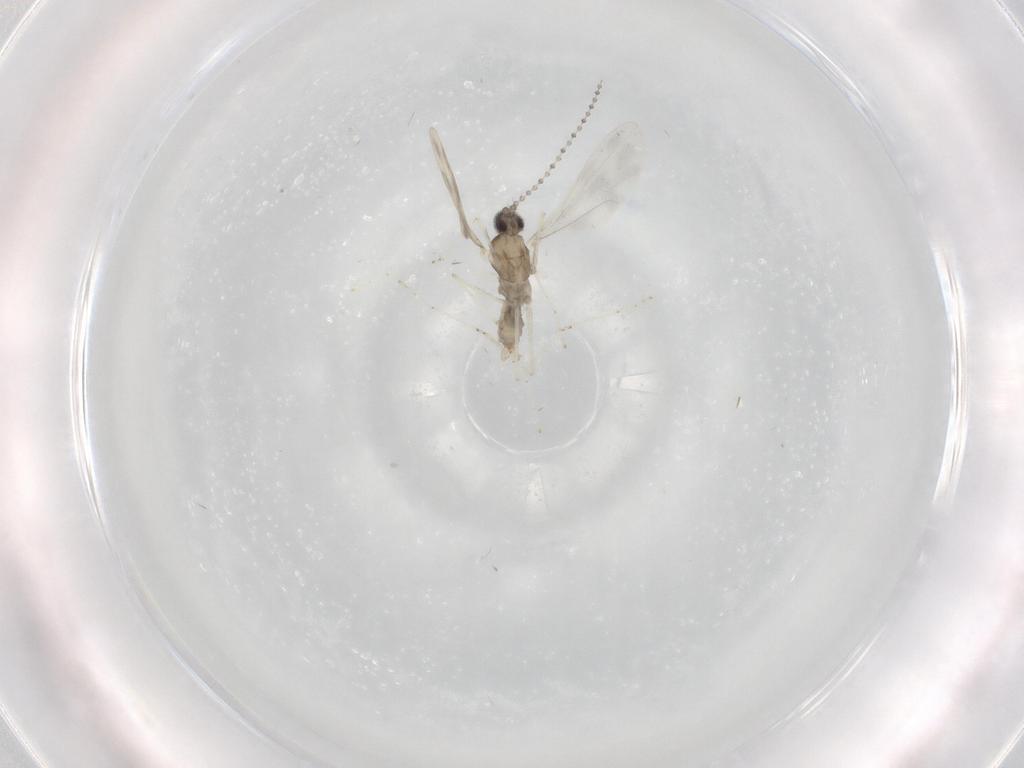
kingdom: Animalia
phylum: Arthropoda
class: Insecta
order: Diptera
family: Cecidomyiidae
